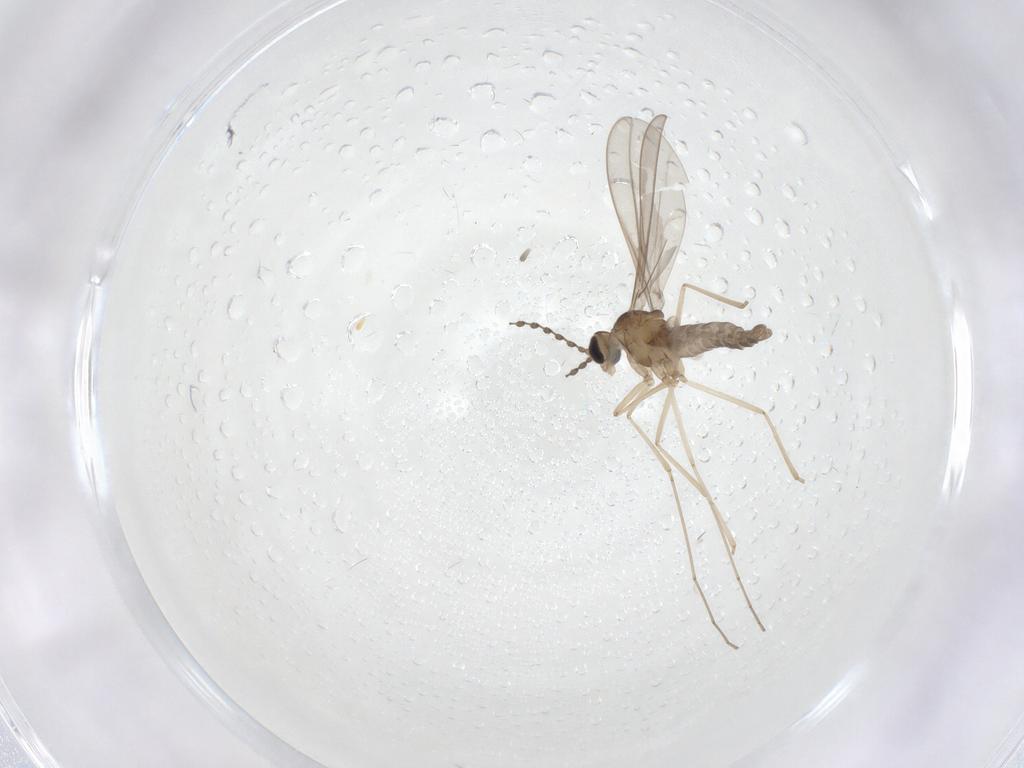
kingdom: Animalia
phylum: Arthropoda
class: Insecta
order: Diptera
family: Cecidomyiidae
